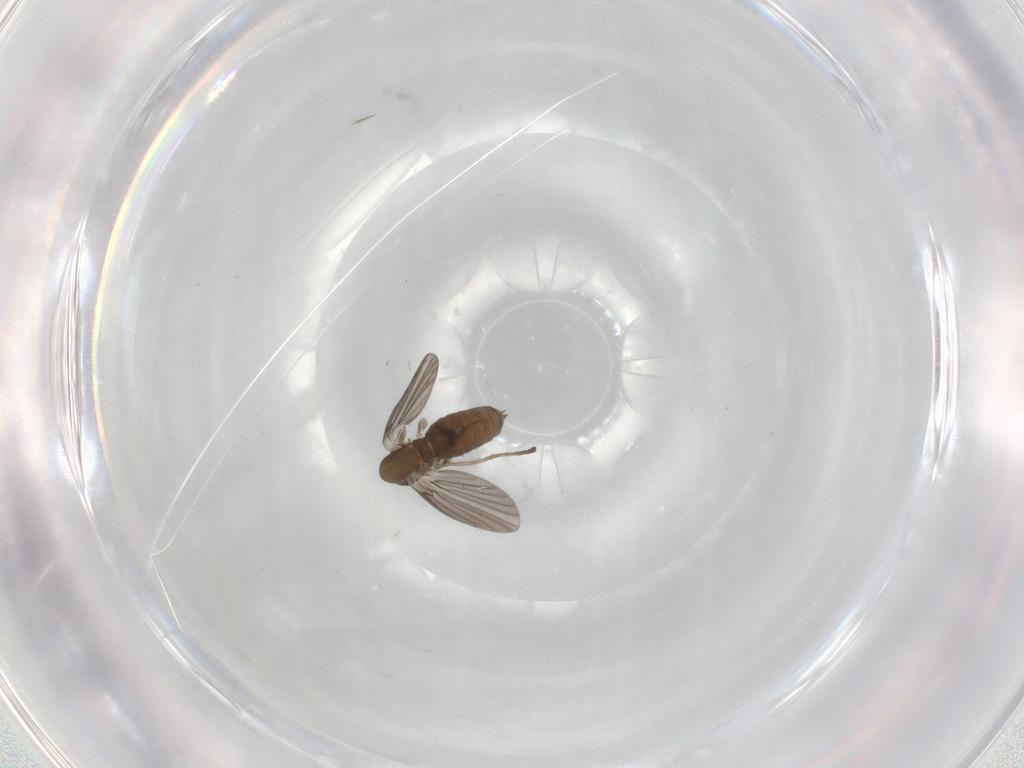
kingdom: Animalia
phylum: Arthropoda
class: Insecta
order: Diptera
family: Cecidomyiidae
